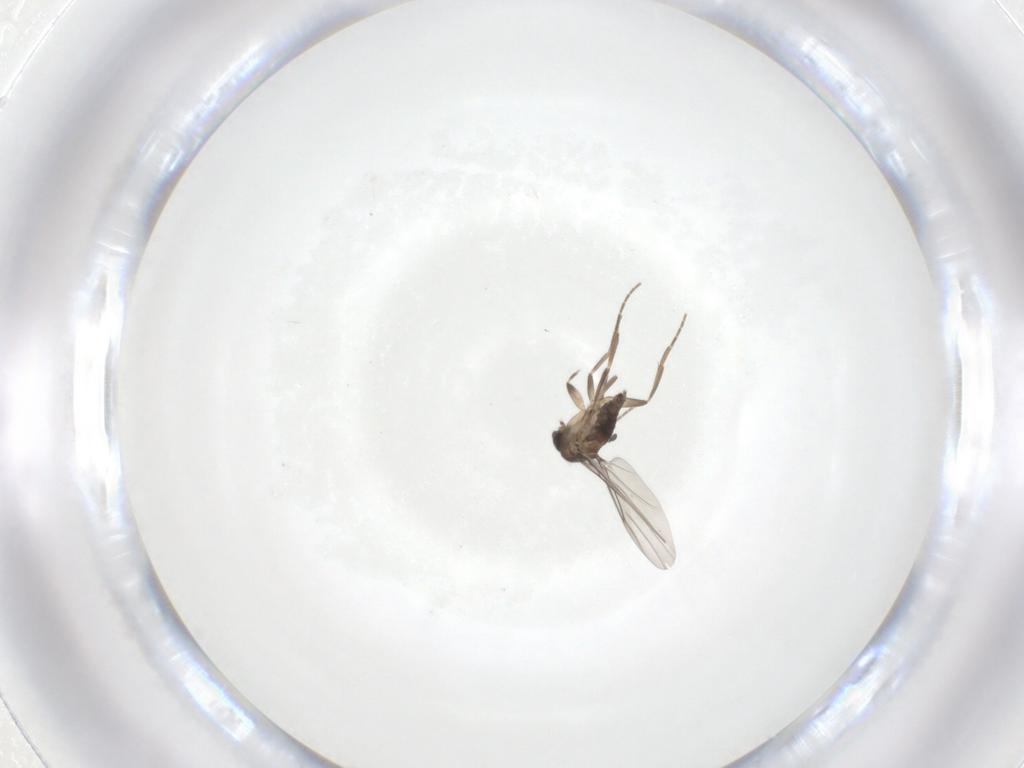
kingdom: Animalia
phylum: Arthropoda
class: Insecta
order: Diptera
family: Phoridae
